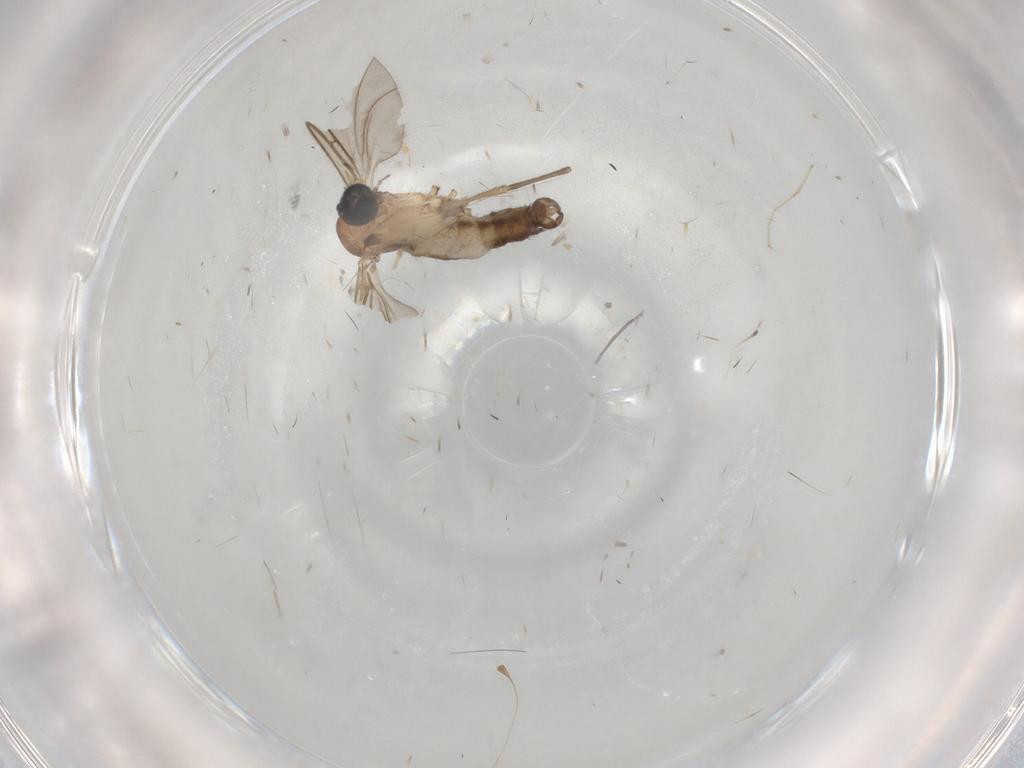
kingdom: Animalia
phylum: Arthropoda
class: Insecta
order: Diptera
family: Sciaridae
